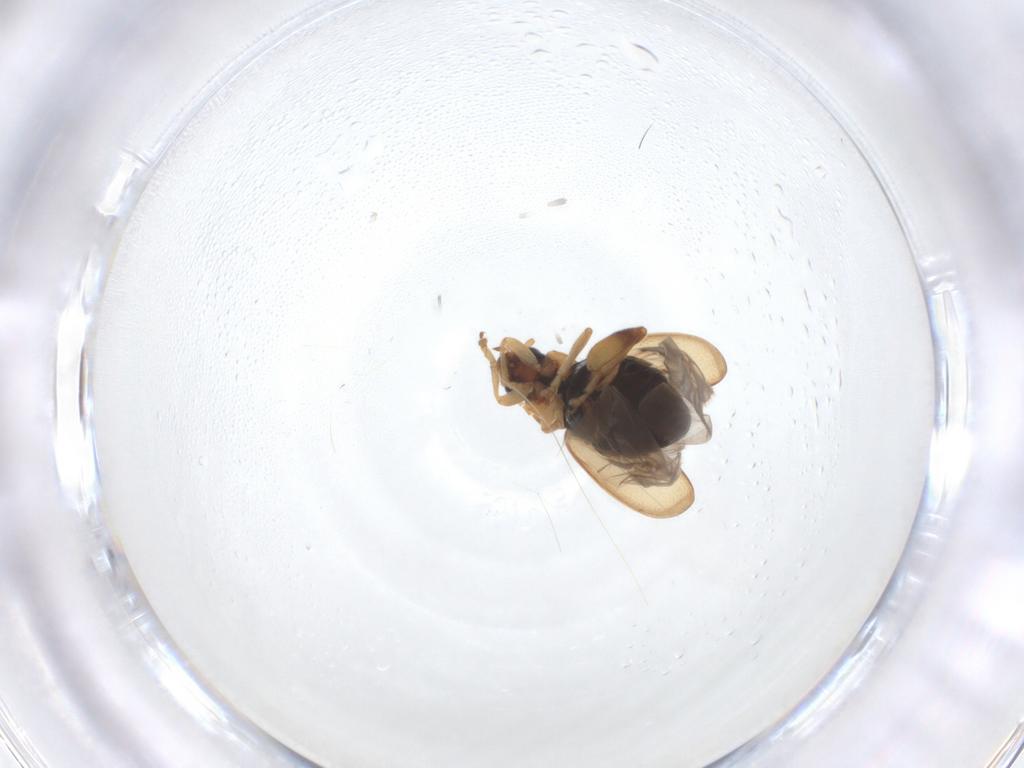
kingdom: Animalia
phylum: Arthropoda
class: Insecta
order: Coleoptera
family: Chrysomelidae
